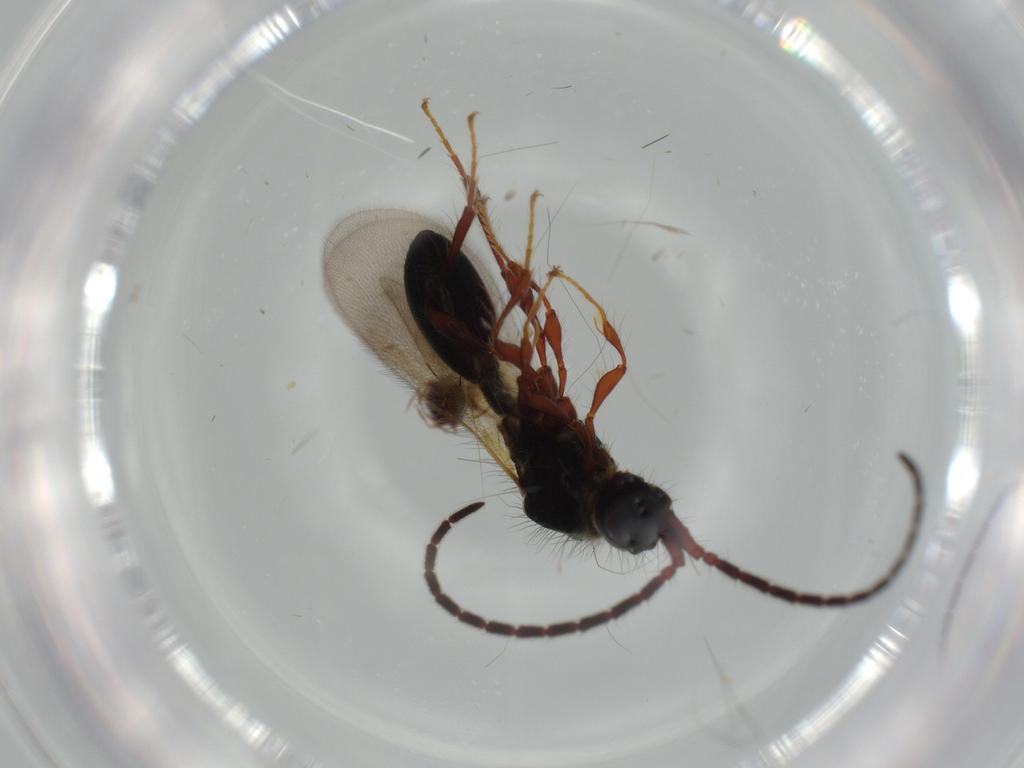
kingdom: Animalia
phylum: Arthropoda
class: Insecta
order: Hymenoptera
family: Diapriidae
